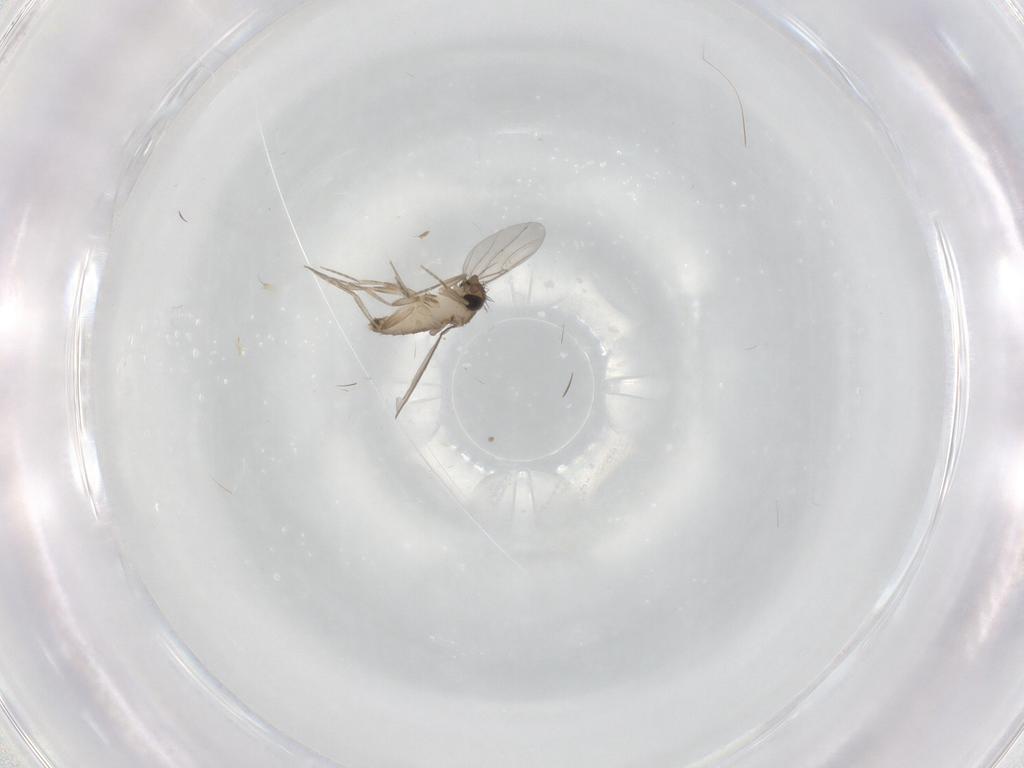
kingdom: Animalia
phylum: Arthropoda
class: Insecta
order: Diptera
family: Phoridae
